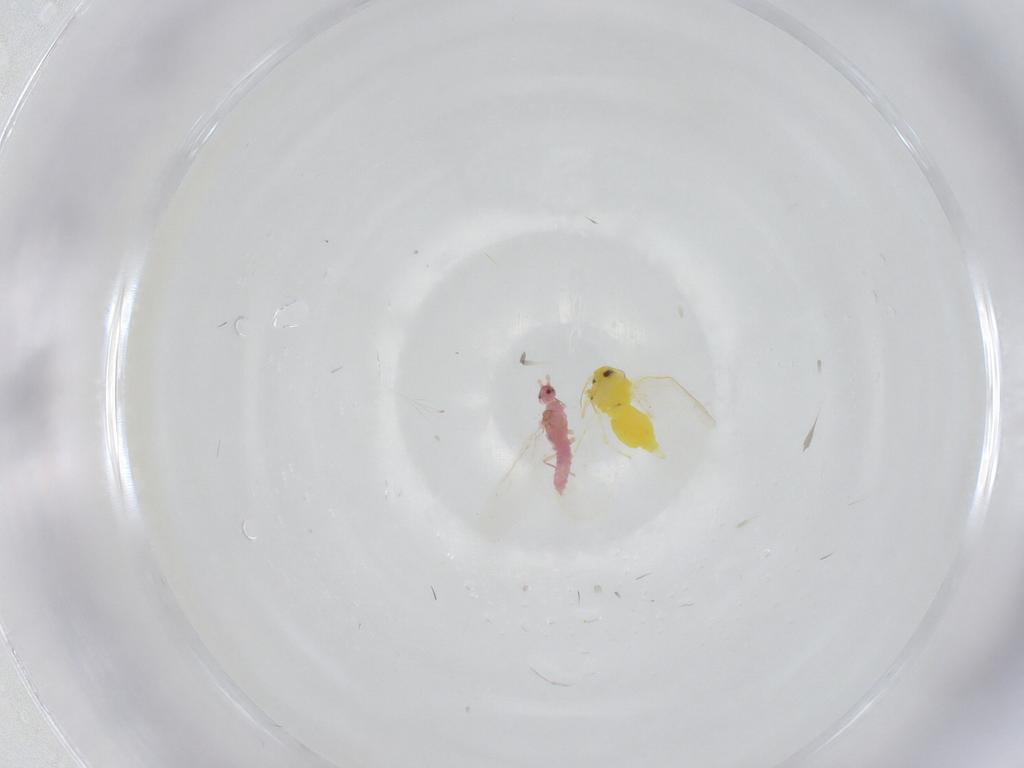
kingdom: Animalia
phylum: Arthropoda
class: Insecta
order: Hemiptera
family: Aleyrodidae
